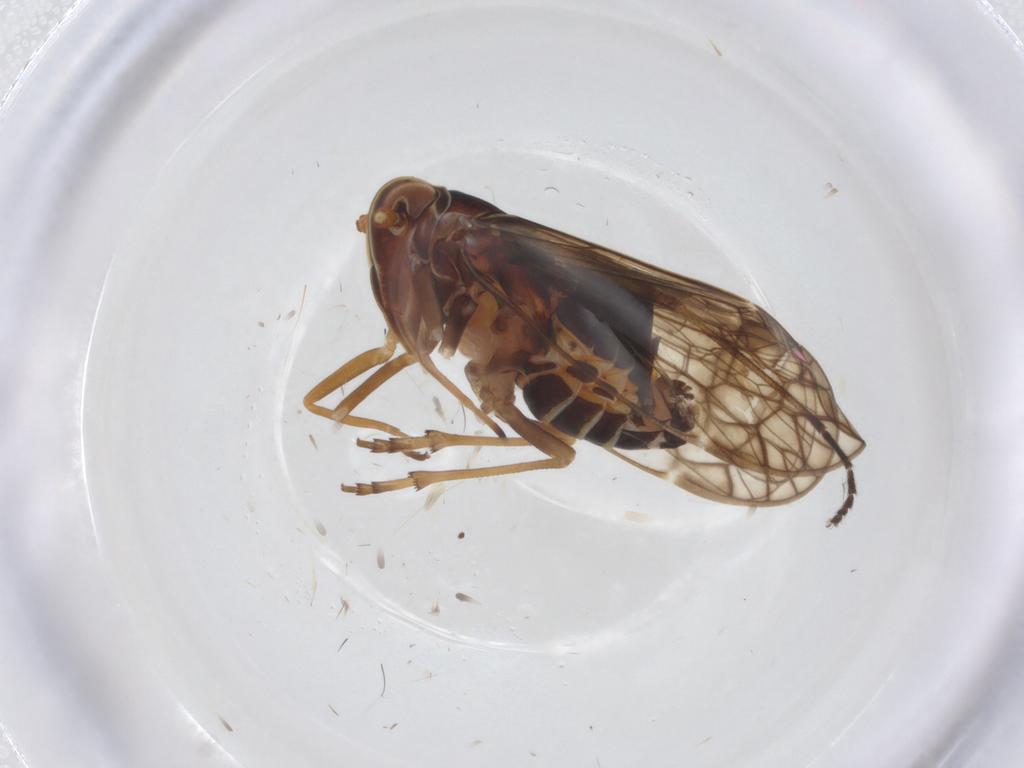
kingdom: Animalia
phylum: Arthropoda
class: Insecta
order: Hemiptera
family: Kinnaridae
